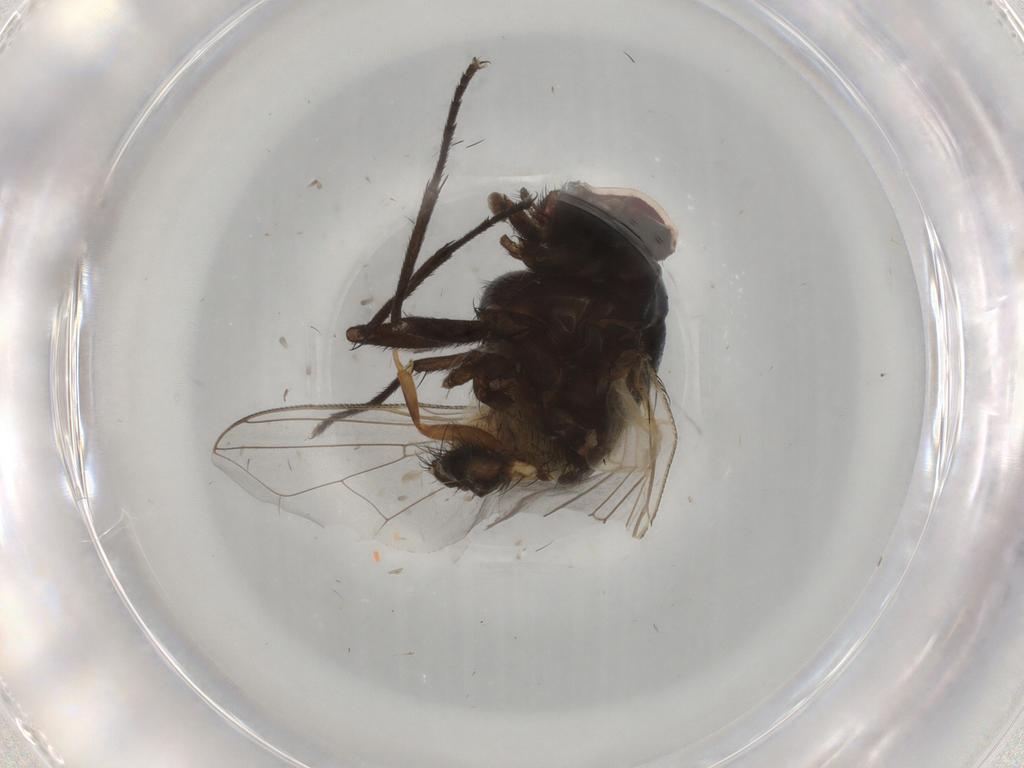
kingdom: Animalia
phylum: Arthropoda
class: Insecta
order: Diptera
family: Muscidae
